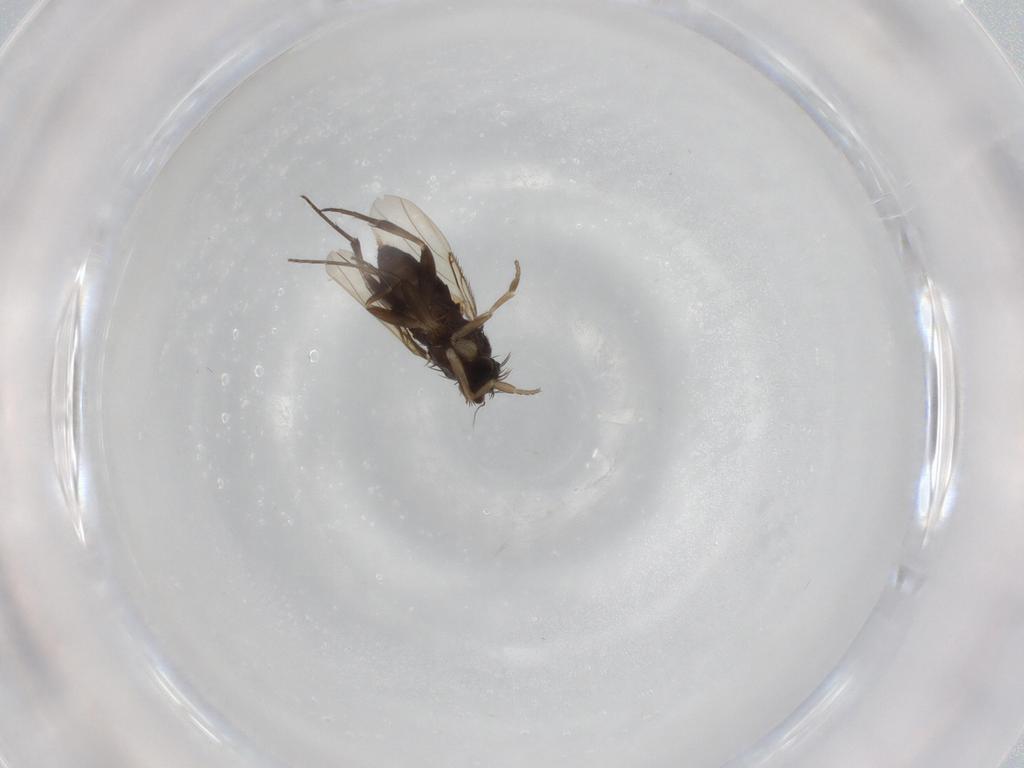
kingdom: Animalia
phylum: Arthropoda
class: Insecta
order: Diptera
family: Phoridae
